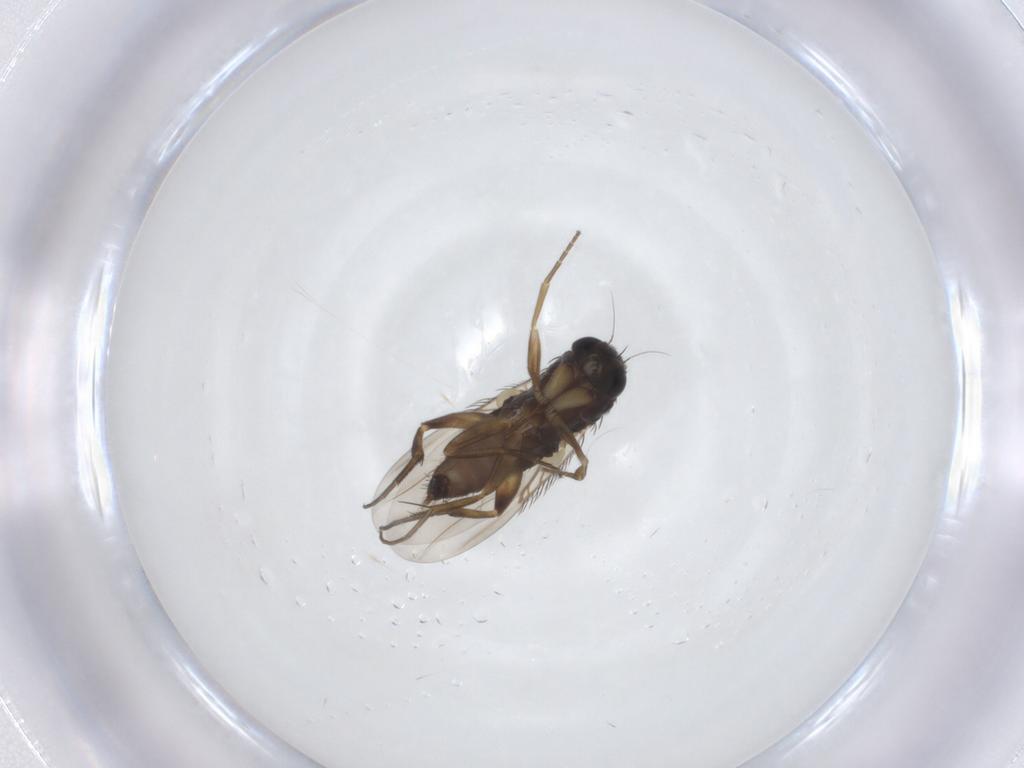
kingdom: Animalia
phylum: Arthropoda
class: Insecta
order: Diptera
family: Phoridae
